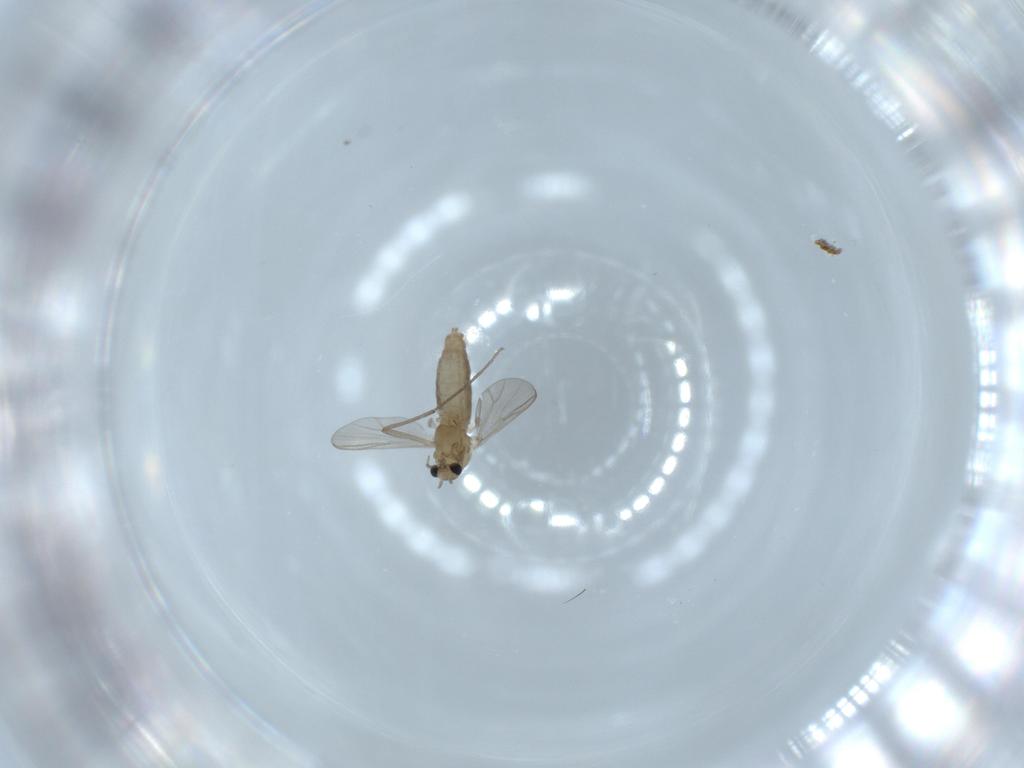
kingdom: Animalia
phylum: Arthropoda
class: Insecta
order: Diptera
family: Chironomidae
